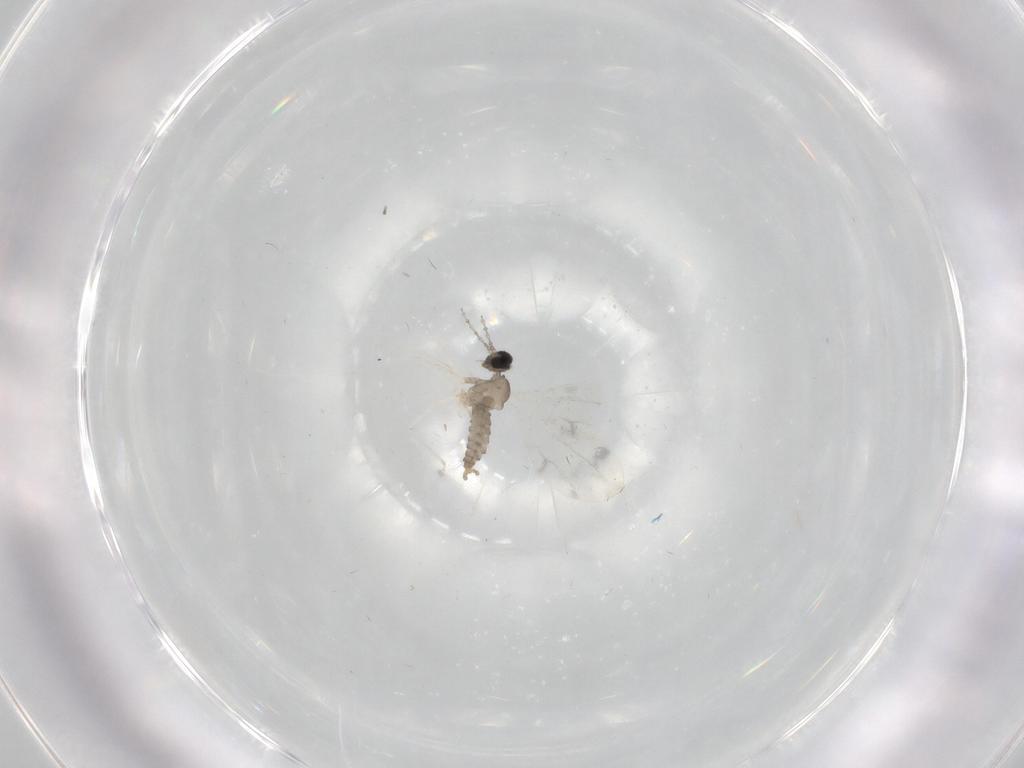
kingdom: Animalia
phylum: Arthropoda
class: Insecta
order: Diptera
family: Cecidomyiidae
